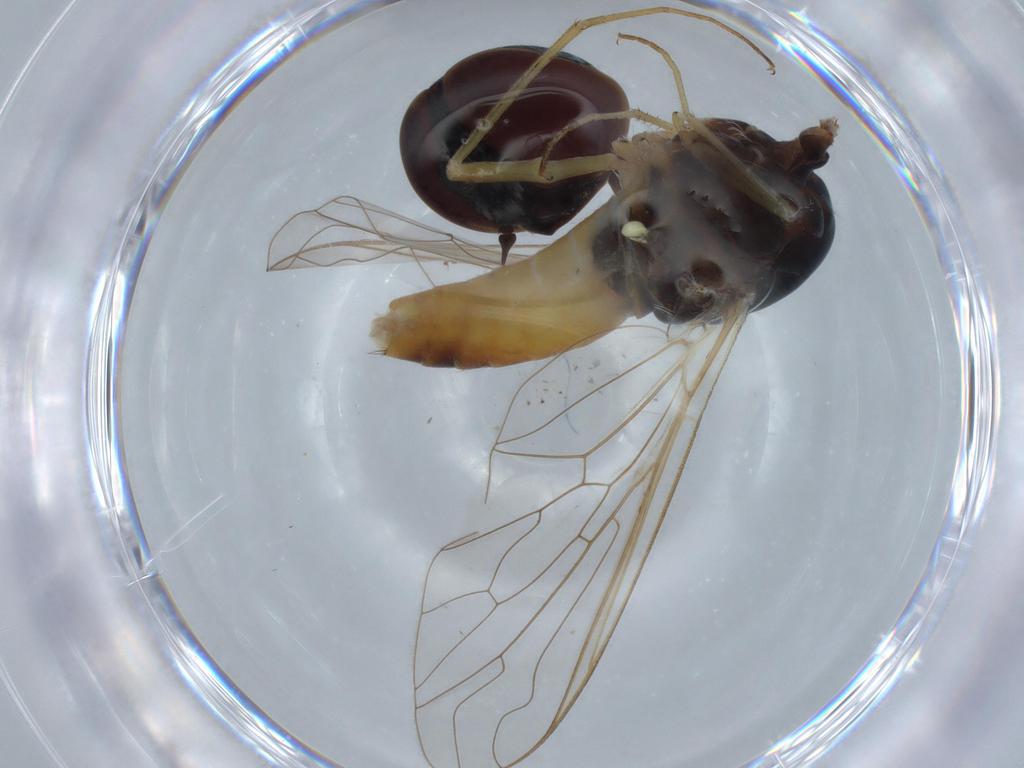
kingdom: Animalia
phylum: Arthropoda
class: Insecta
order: Diptera
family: Bombyliidae
